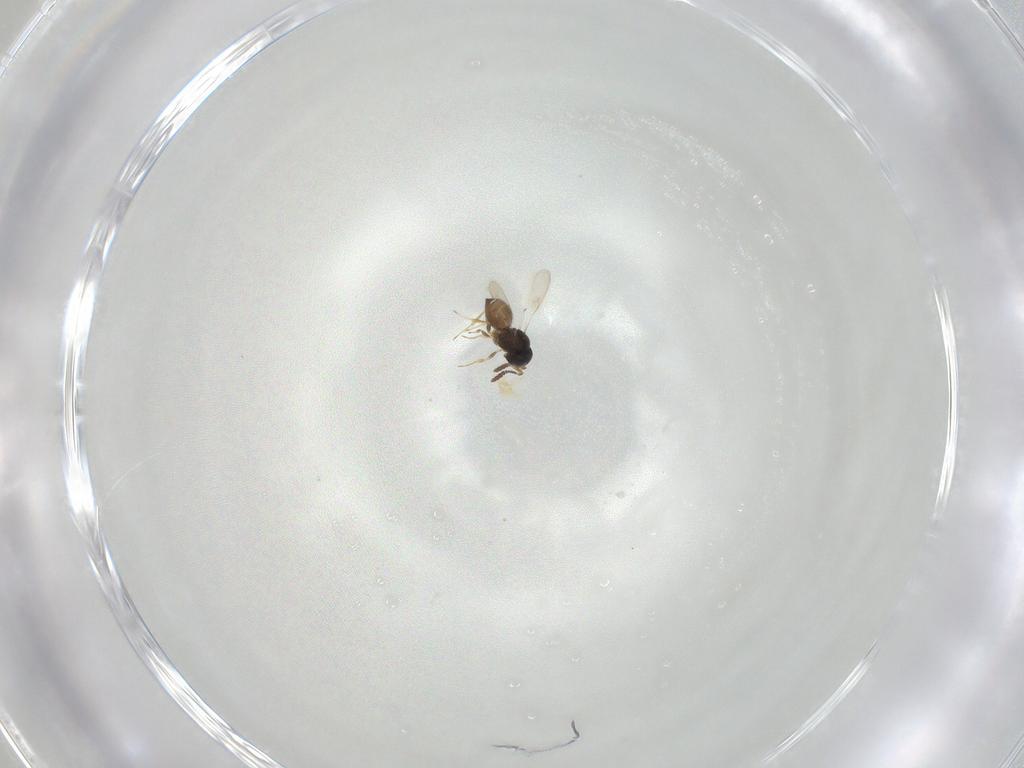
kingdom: Animalia
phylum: Arthropoda
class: Insecta
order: Hymenoptera
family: Scelionidae
